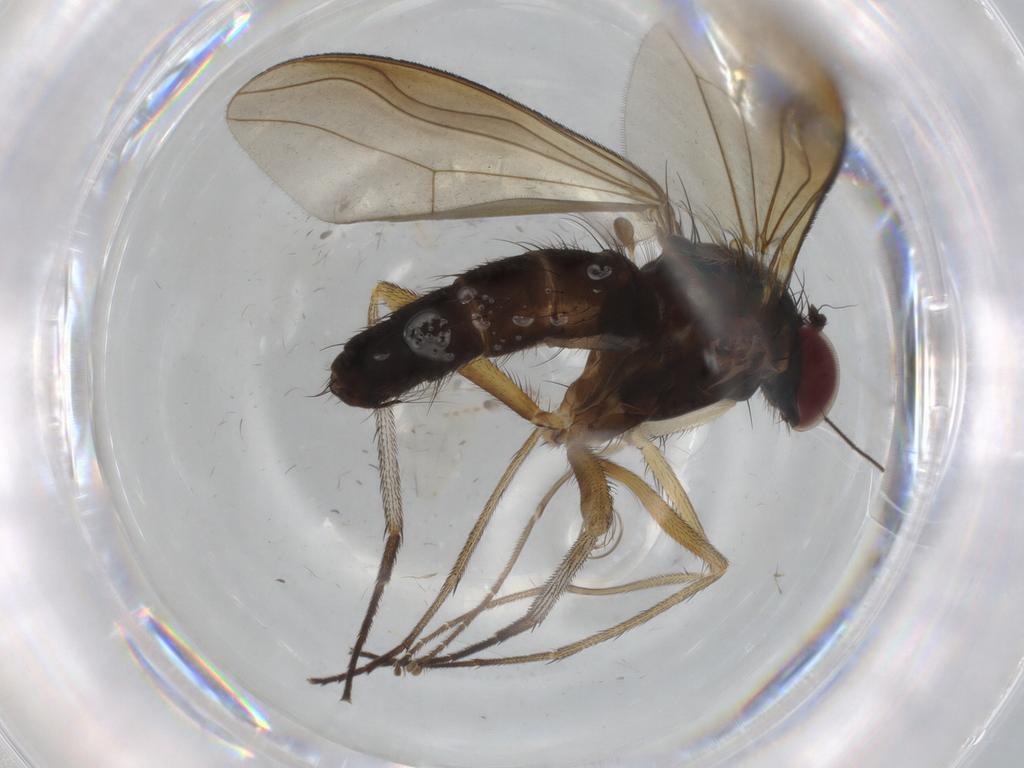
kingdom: Animalia
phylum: Arthropoda
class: Insecta
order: Diptera
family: Dolichopodidae
